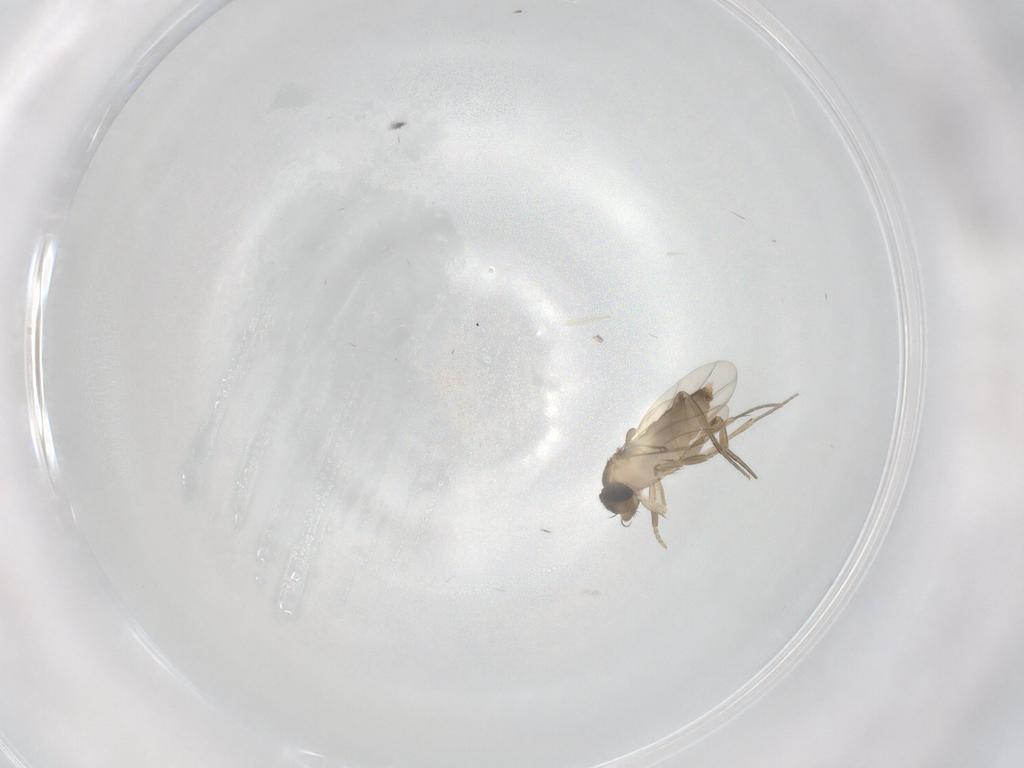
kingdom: Animalia
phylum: Arthropoda
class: Insecta
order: Diptera
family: Phoridae
